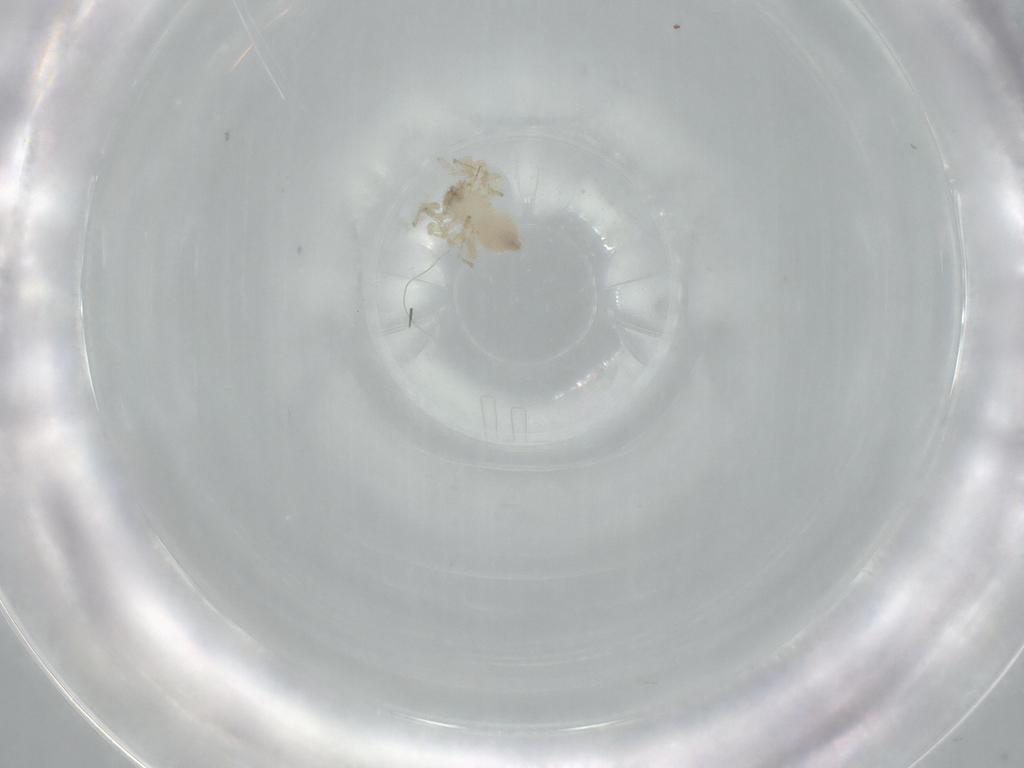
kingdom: Animalia
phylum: Arthropoda
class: Arachnida
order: Araneae
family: Oonopidae
